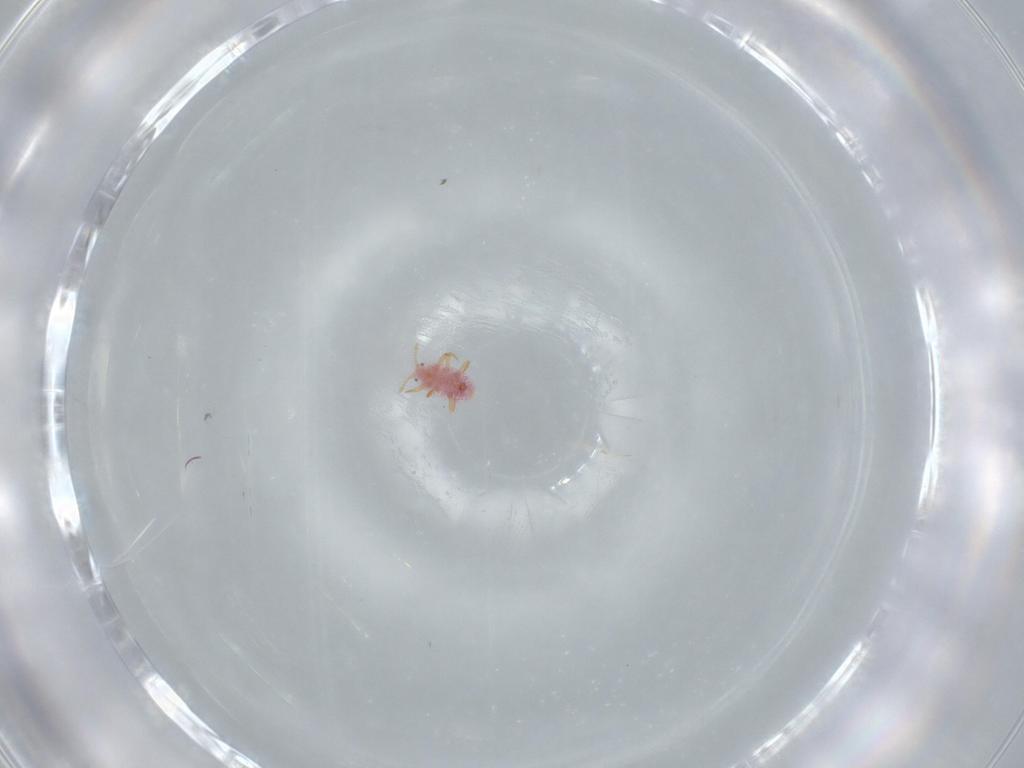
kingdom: Animalia
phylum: Arthropoda
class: Insecta
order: Hemiptera
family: Pseudococcidae
